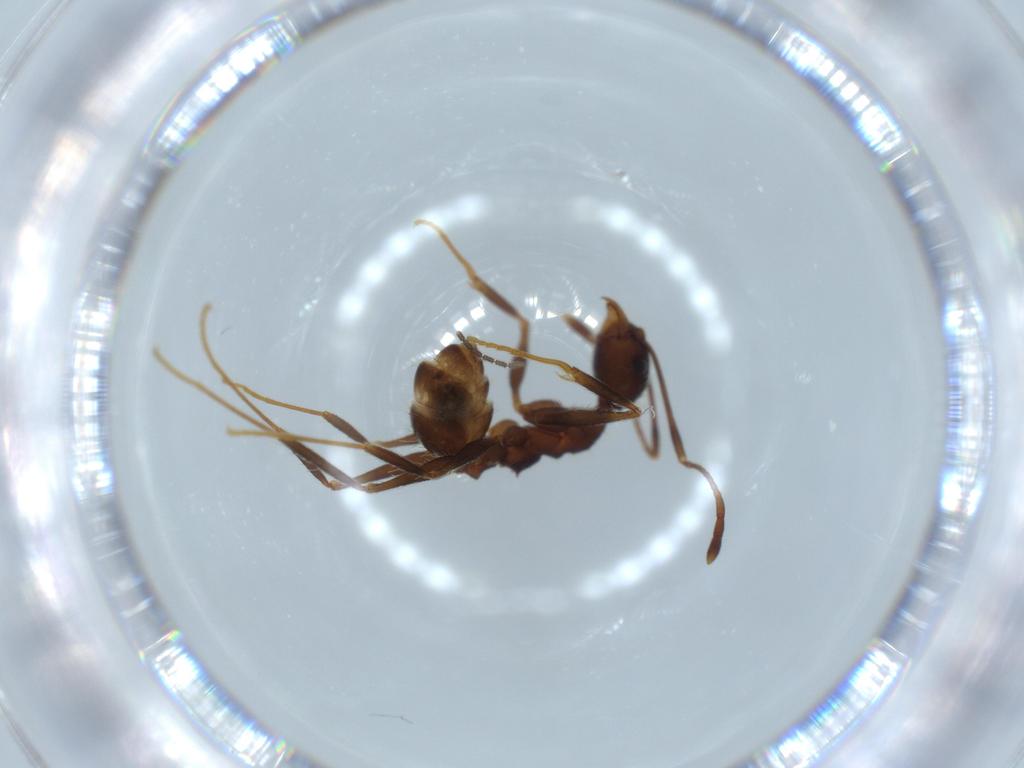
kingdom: Animalia
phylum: Arthropoda
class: Insecta
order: Hymenoptera
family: Formicidae
